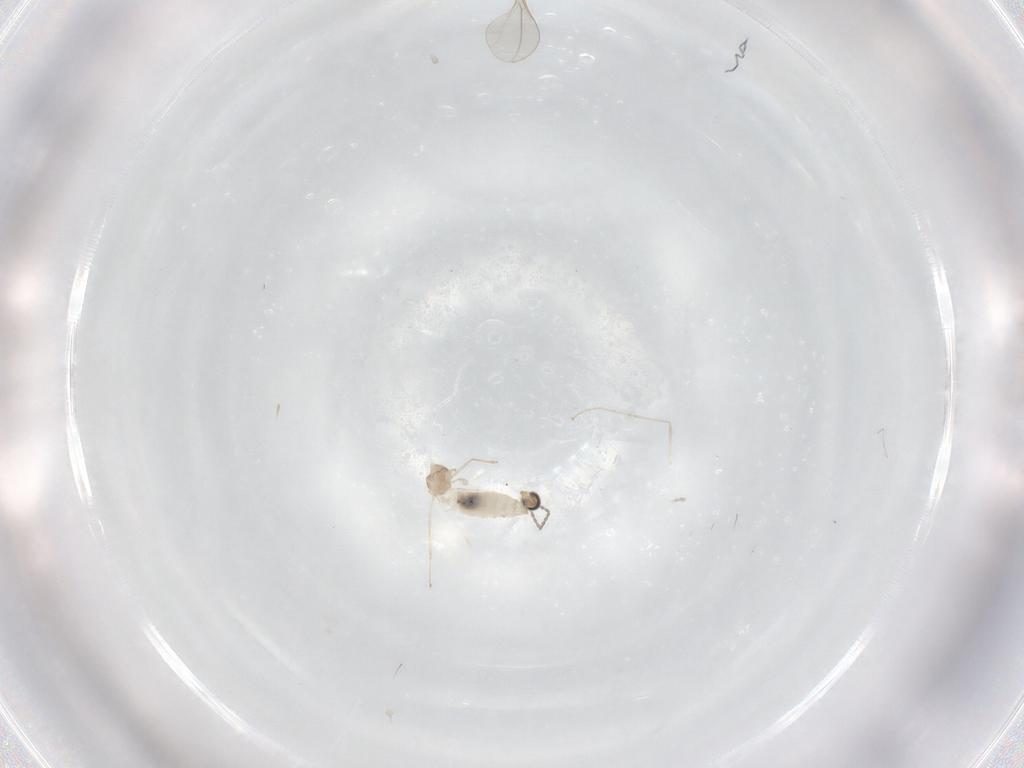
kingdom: Animalia
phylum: Arthropoda
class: Insecta
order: Diptera
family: Cecidomyiidae
